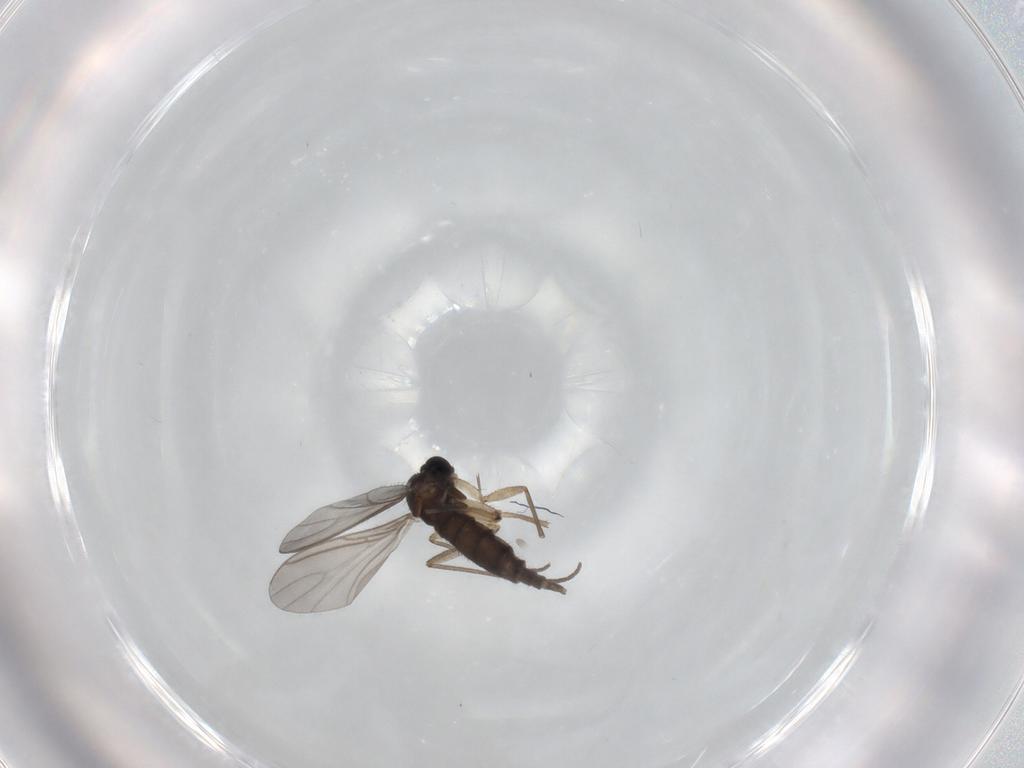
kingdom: Animalia
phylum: Arthropoda
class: Insecta
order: Diptera
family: Sciaridae
